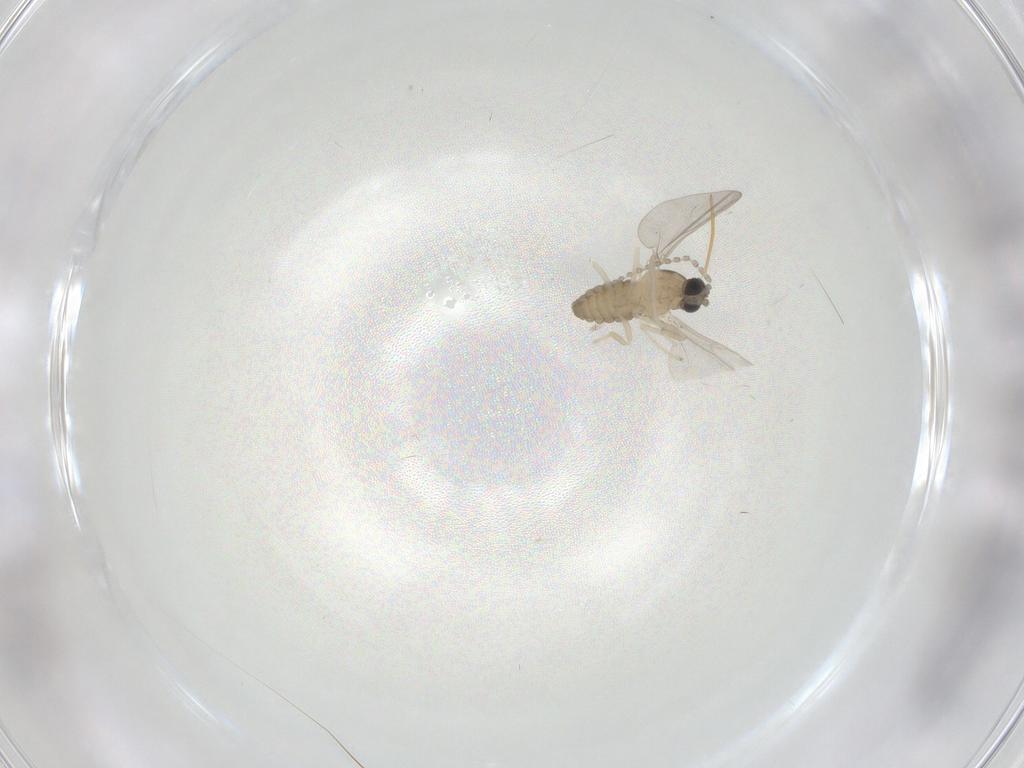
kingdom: Animalia
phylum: Arthropoda
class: Insecta
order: Diptera
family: Cecidomyiidae
